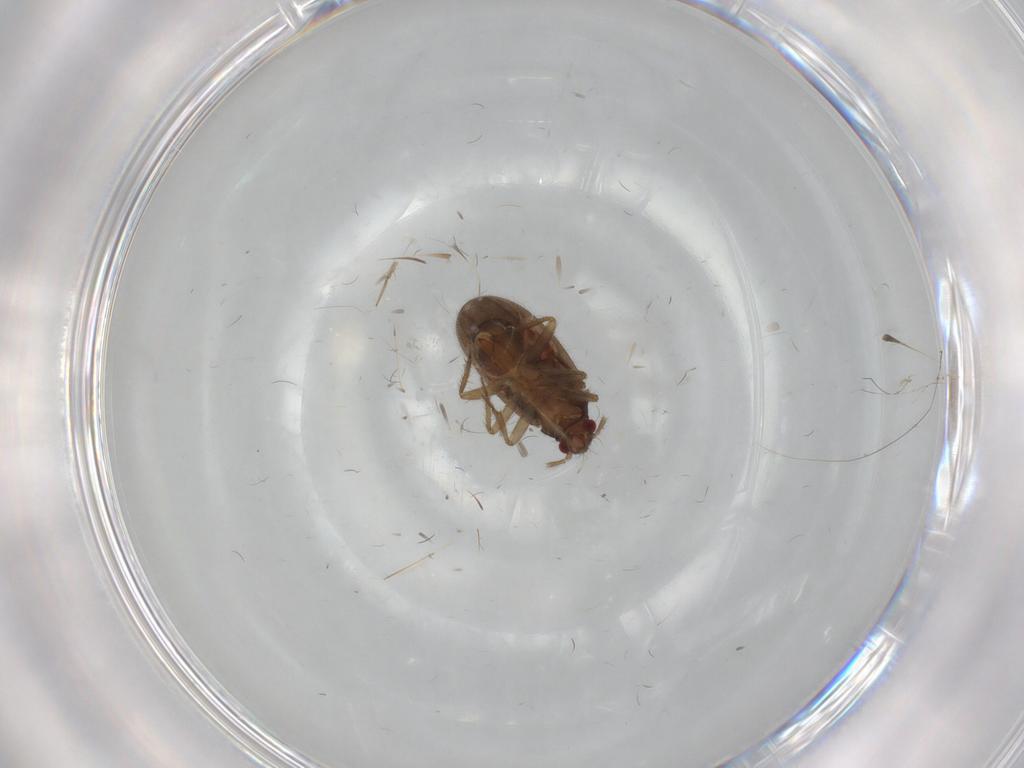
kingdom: Animalia
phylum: Arthropoda
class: Insecta
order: Hemiptera
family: Ceratocombidae
